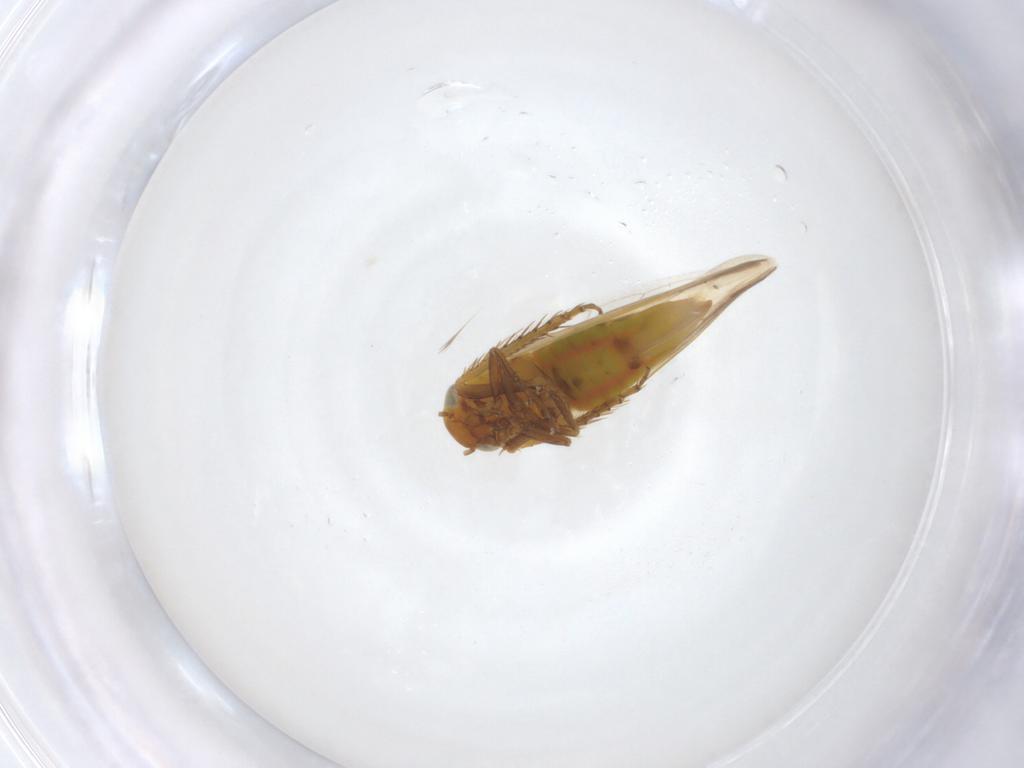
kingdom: Animalia
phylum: Arthropoda
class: Insecta
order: Hemiptera
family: Cicadellidae
